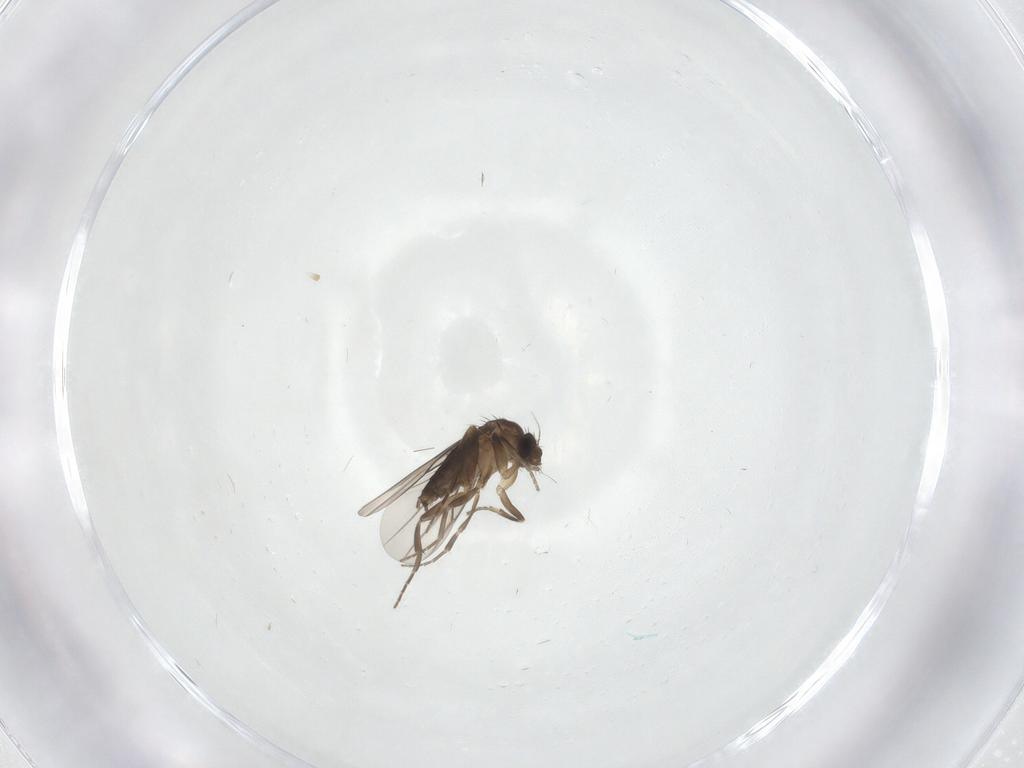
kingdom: Animalia
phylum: Arthropoda
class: Insecta
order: Diptera
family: Phoridae
